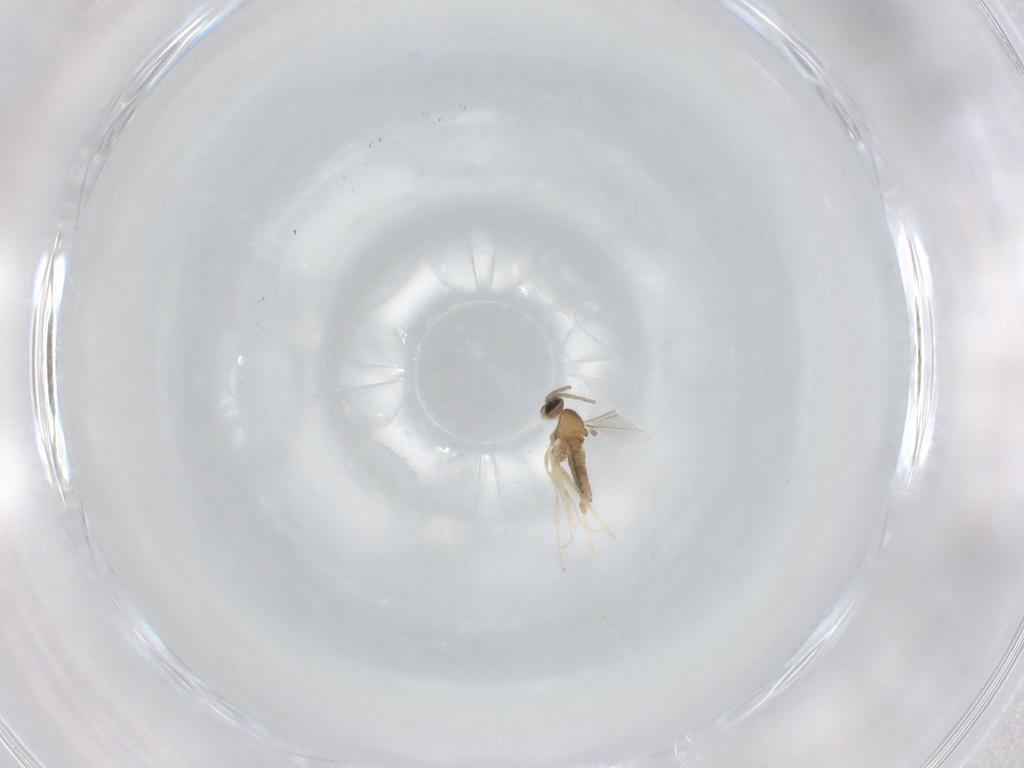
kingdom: Animalia
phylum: Arthropoda
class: Insecta
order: Diptera
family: Cecidomyiidae
